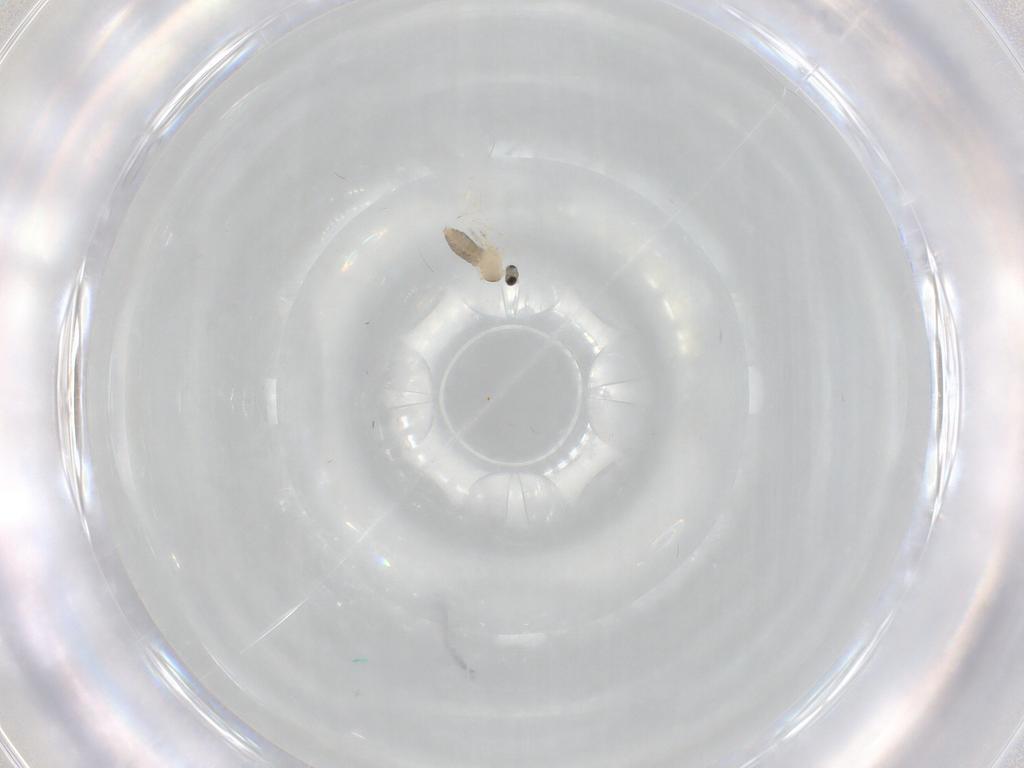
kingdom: Animalia
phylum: Arthropoda
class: Insecta
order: Diptera
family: Cecidomyiidae
